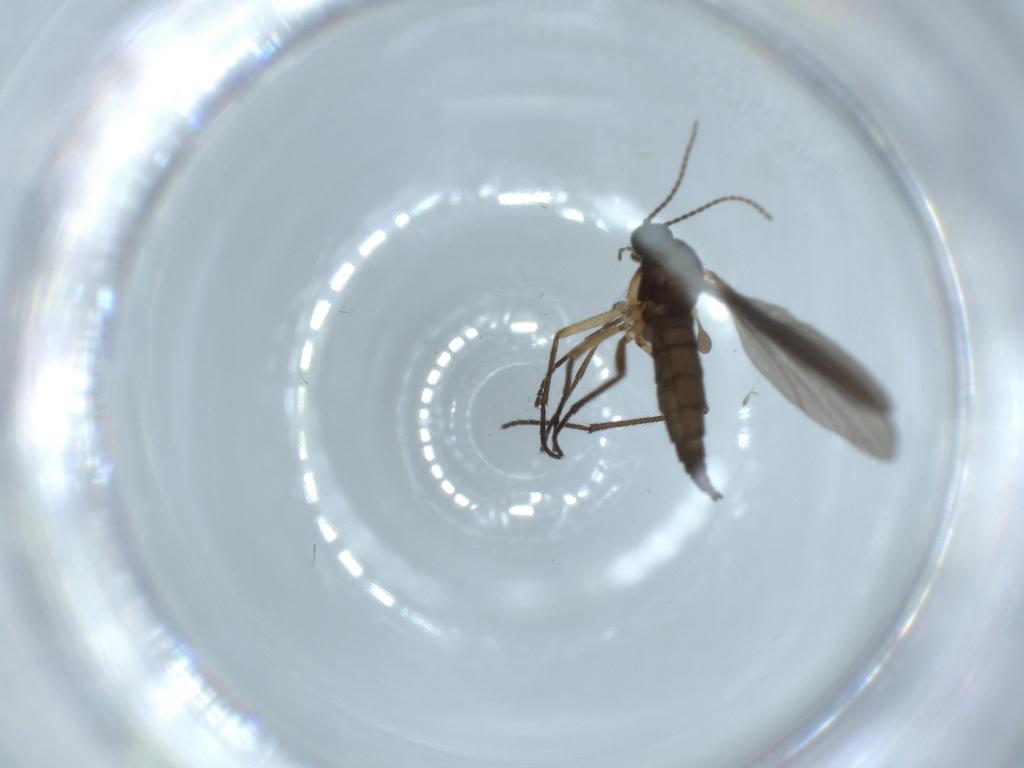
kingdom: Animalia
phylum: Arthropoda
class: Insecta
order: Diptera
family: Sciaridae
